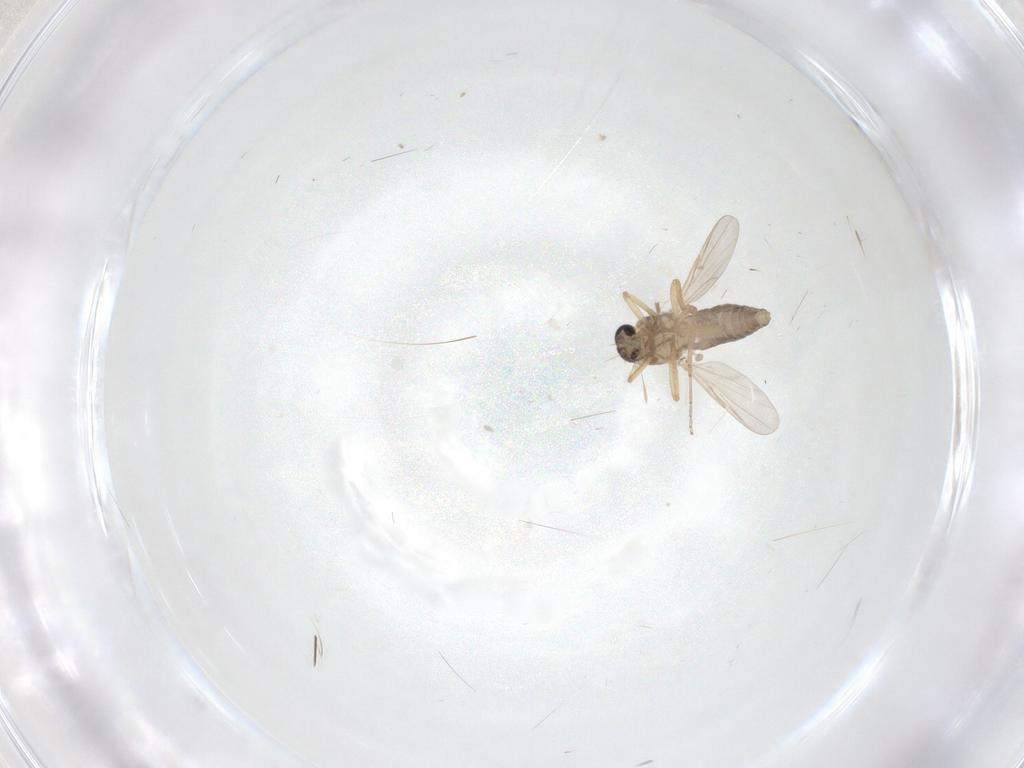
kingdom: Animalia
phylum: Arthropoda
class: Insecta
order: Diptera
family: Ceratopogonidae
